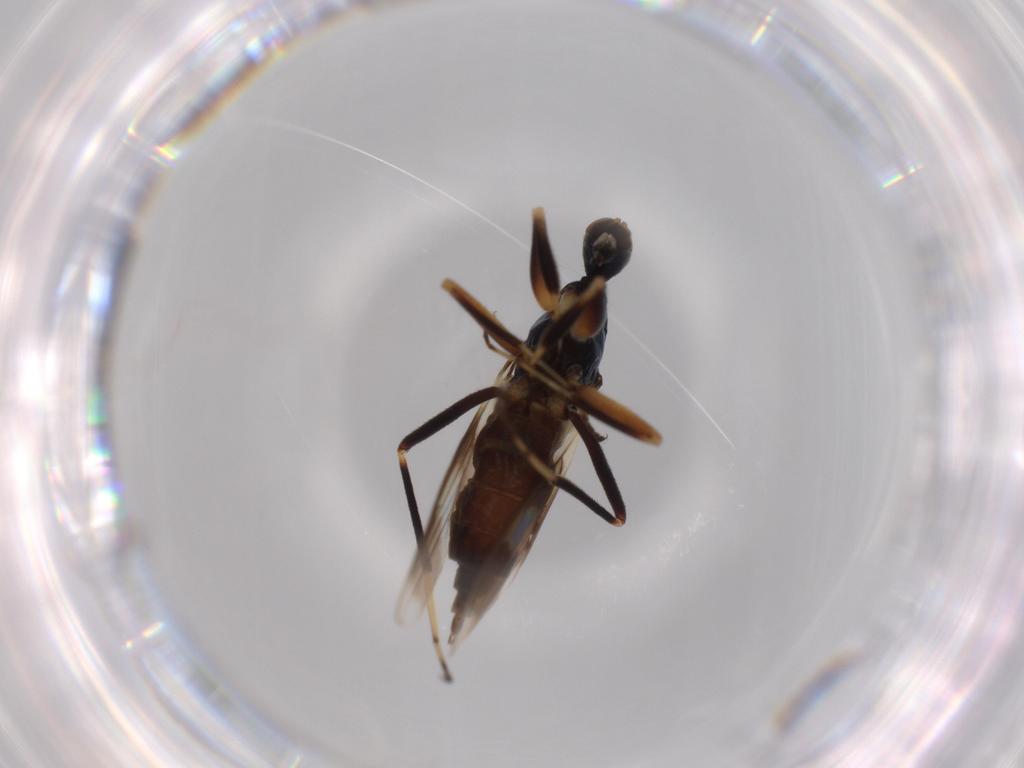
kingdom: Animalia
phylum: Arthropoda
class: Insecta
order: Diptera
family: Hybotidae
